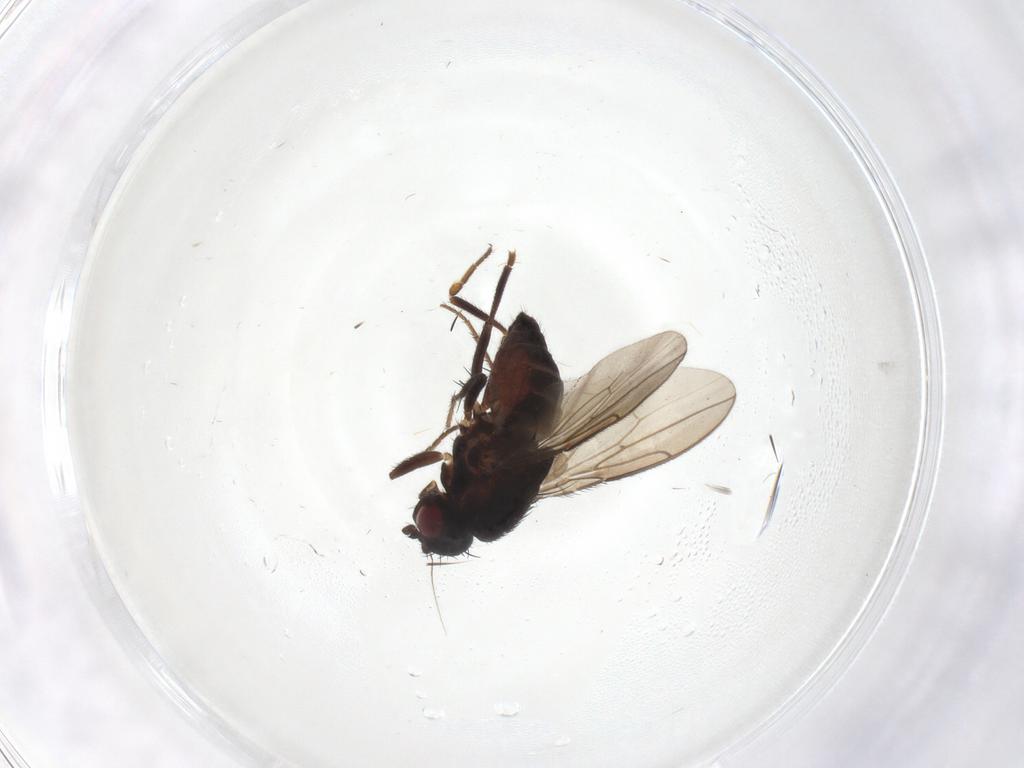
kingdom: Animalia
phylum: Arthropoda
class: Insecta
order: Diptera
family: Sphaeroceridae
